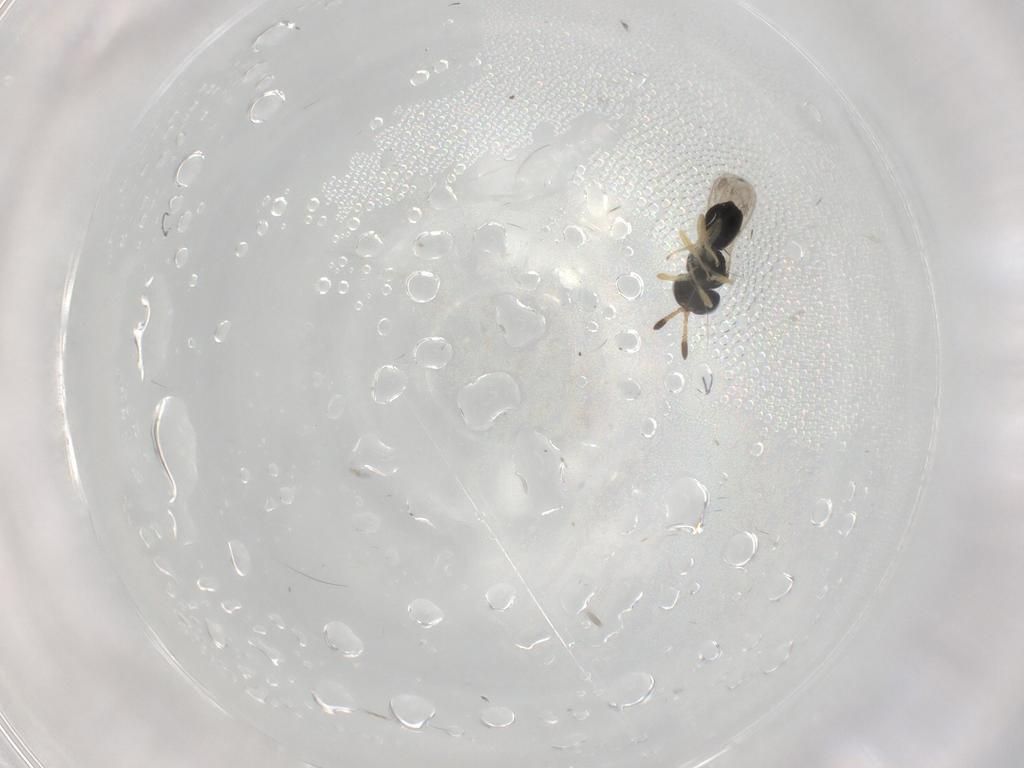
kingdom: Animalia
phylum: Arthropoda
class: Insecta
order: Hymenoptera
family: Scelionidae
